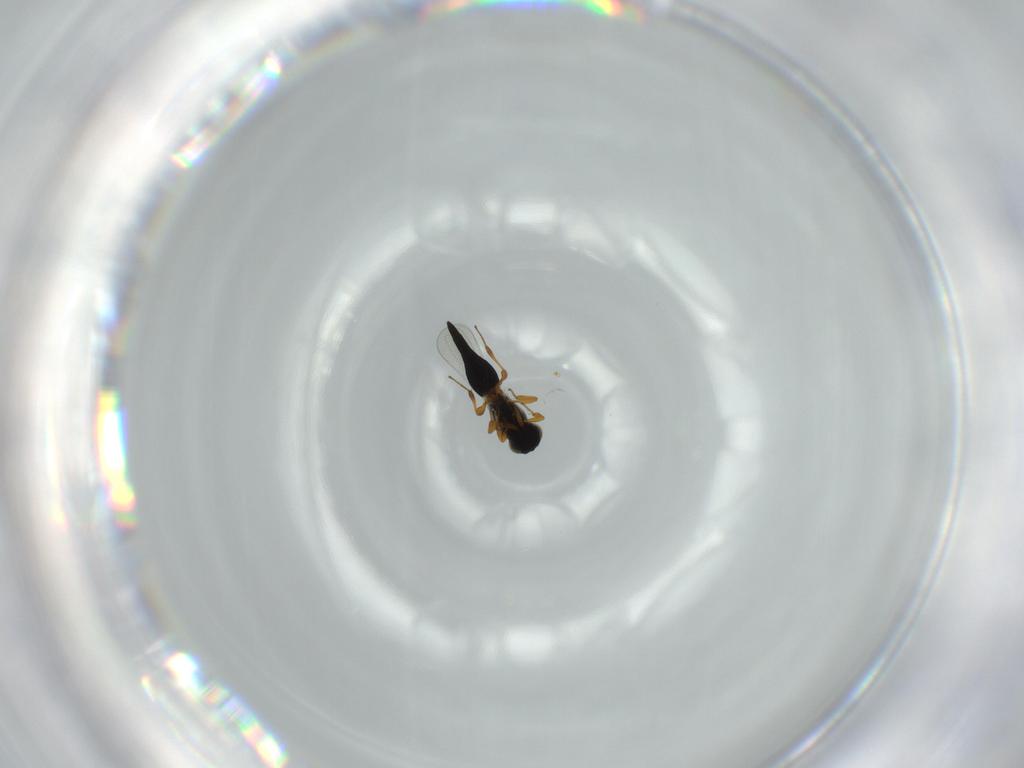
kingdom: Animalia
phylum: Arthropoda
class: Insecta
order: Hymenoptera
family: Platygastridae
